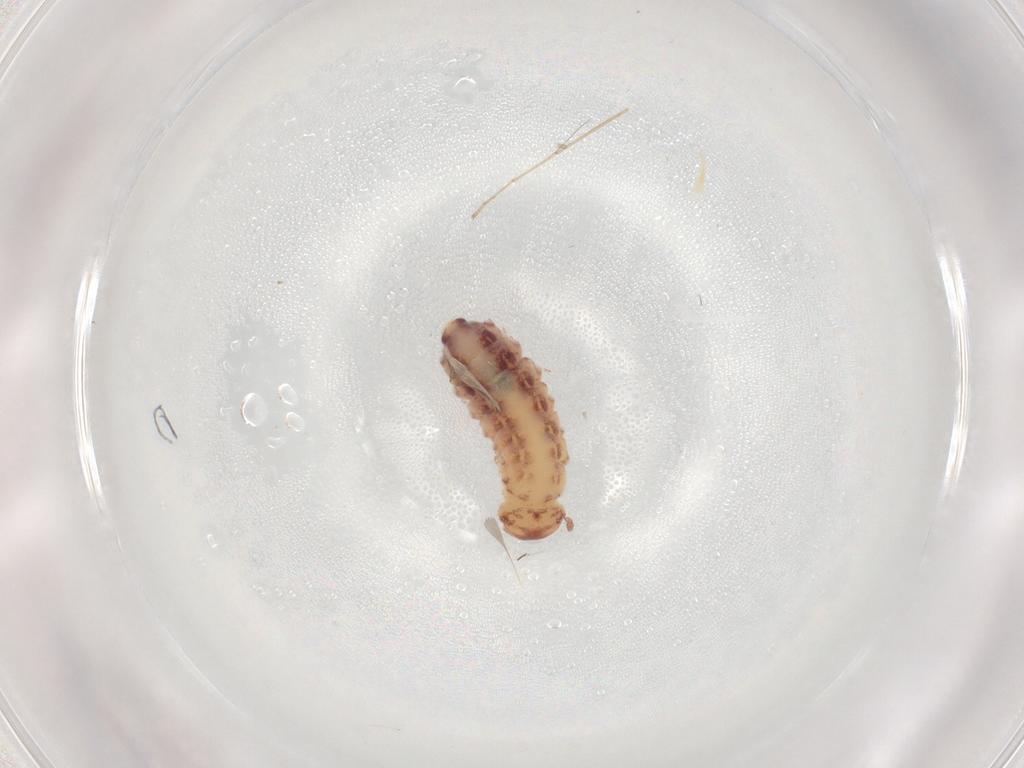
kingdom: Animalia
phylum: Arthropoda
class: Diplopoda
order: Polyxenida
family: Polyxenidae
